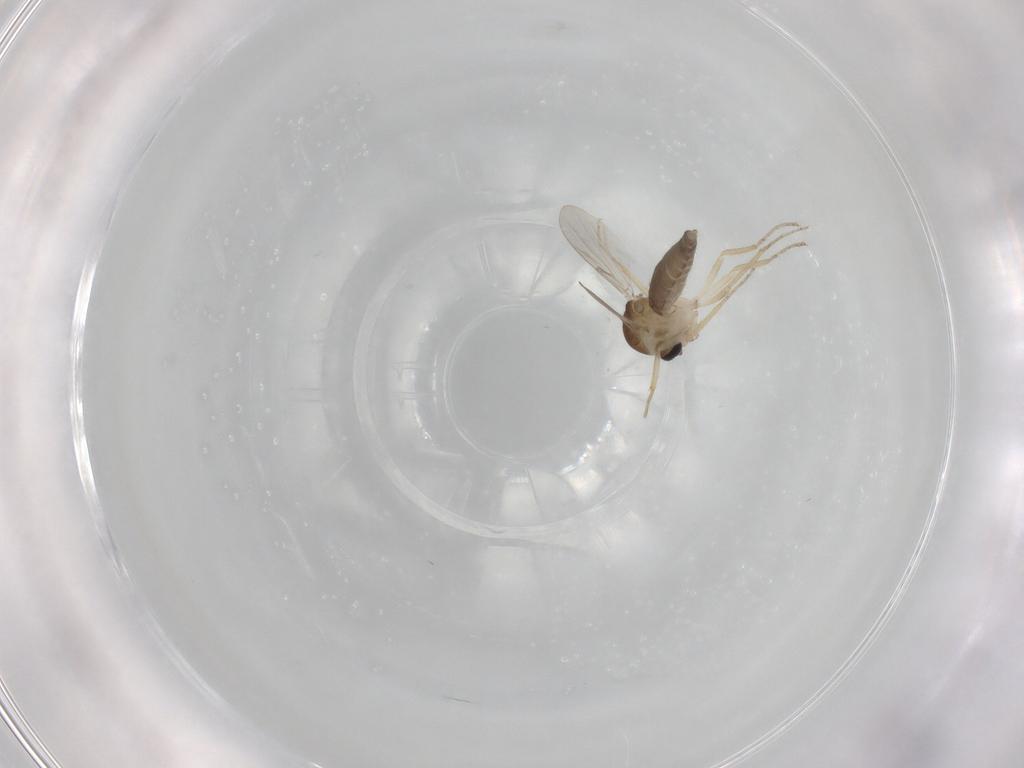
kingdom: Animalia
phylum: Arthropoda
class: Insecta
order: Diptera
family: Ceratopogonidae
